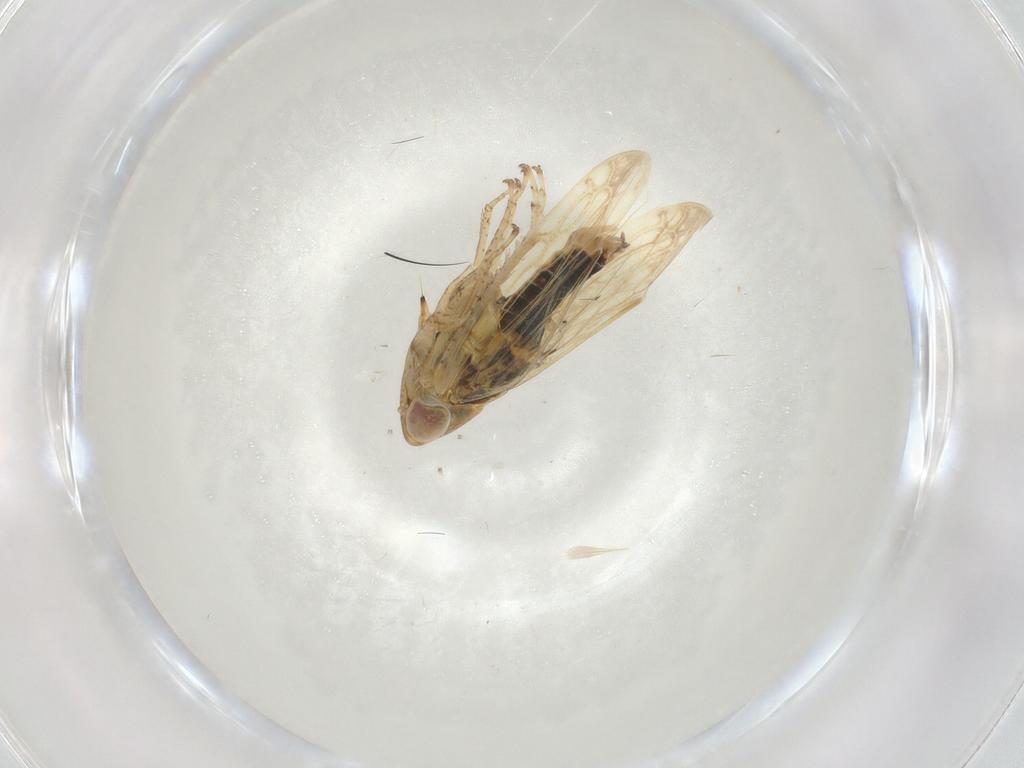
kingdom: Animalia
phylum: Arthropoda
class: Insecta
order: Hemiptera
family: Cicadellidae
